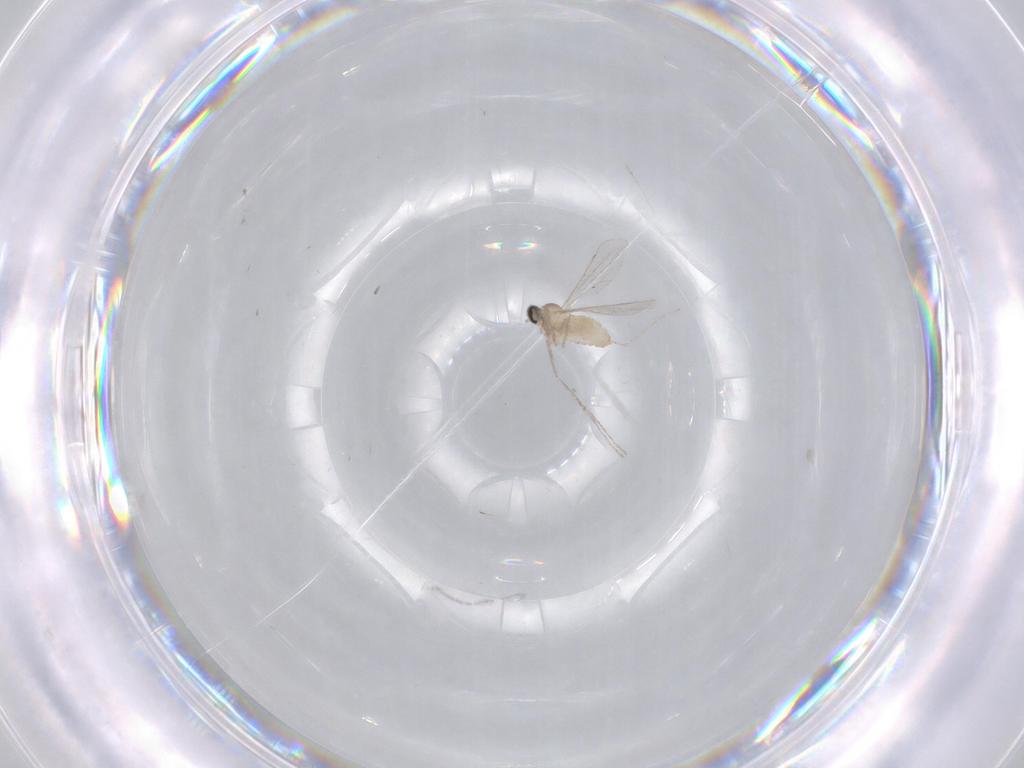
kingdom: Animalia
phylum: Arthropoda
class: Insecta
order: Diptera
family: Cecidomyiidae
